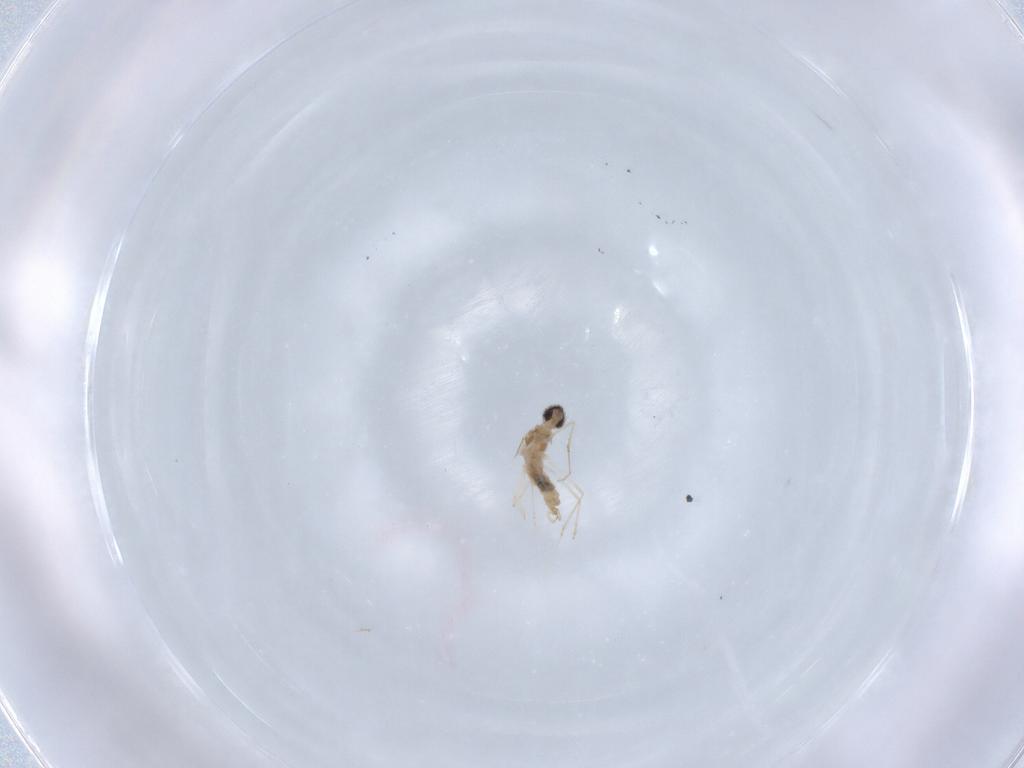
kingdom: Animalia
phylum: Arthropoda
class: Insecta
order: Diptera
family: Cecidomyiidae
